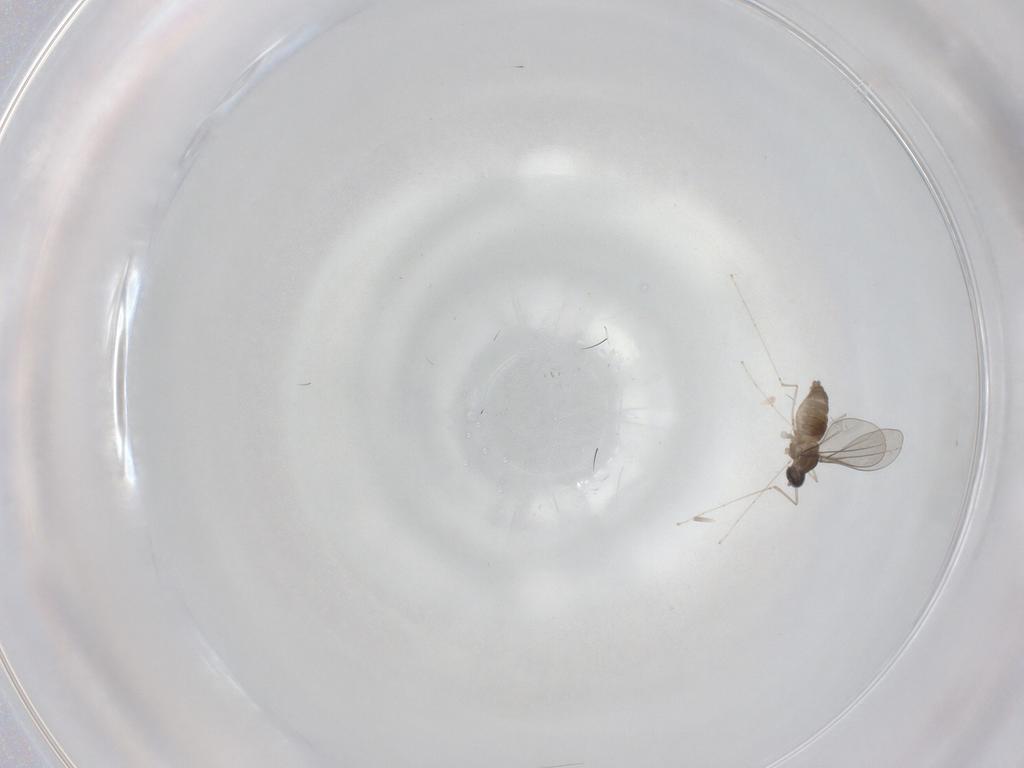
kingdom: Animalia
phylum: Arthropoda
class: Insecta
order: Diptera
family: Cecidomyiidae
